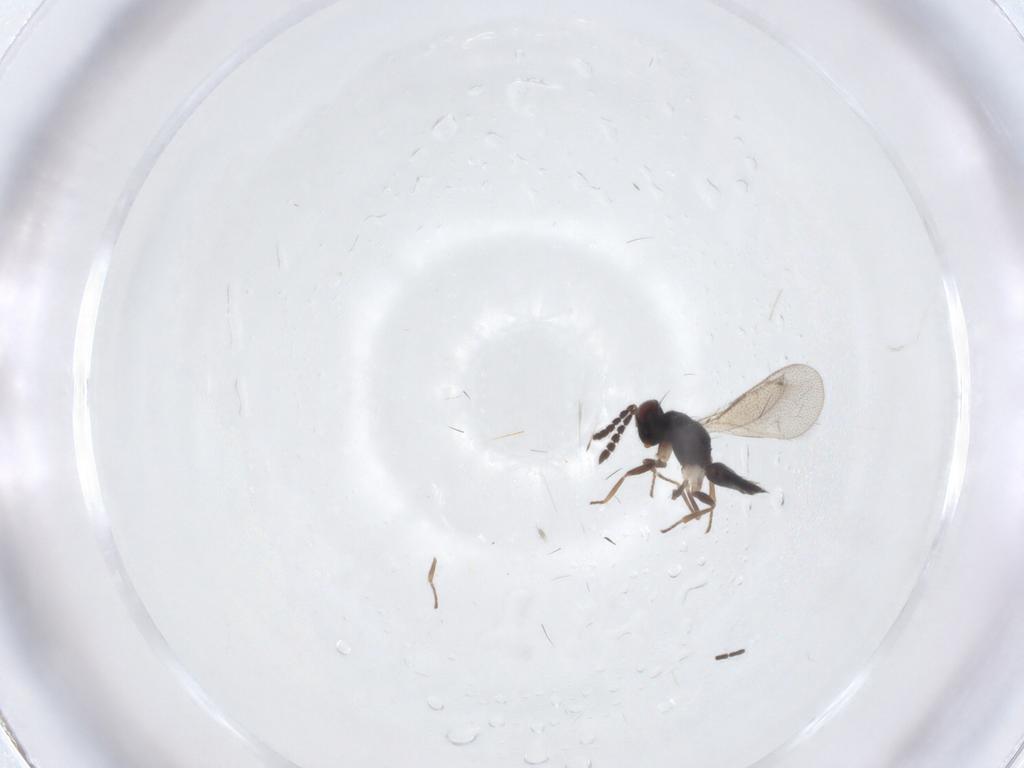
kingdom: Animalia
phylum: Arthropoda
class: Insecta
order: Hymenoptera
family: Eulophidae
